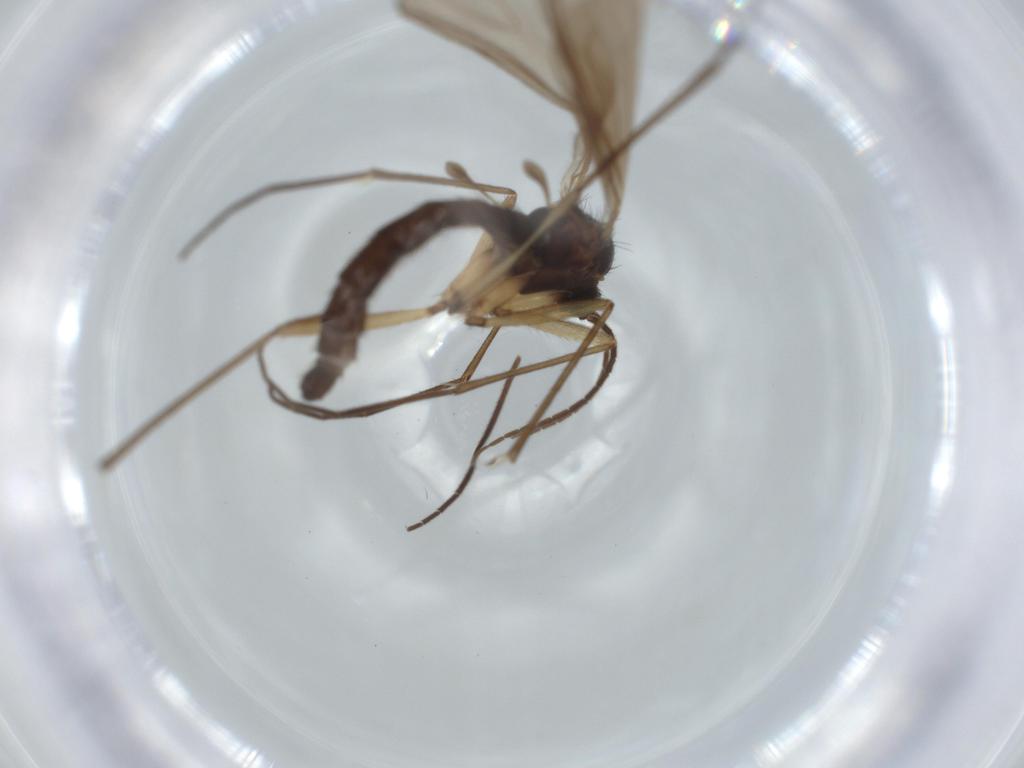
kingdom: Animalia
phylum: Arthropoda
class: Insecta
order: Diptera
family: Sciaridae
